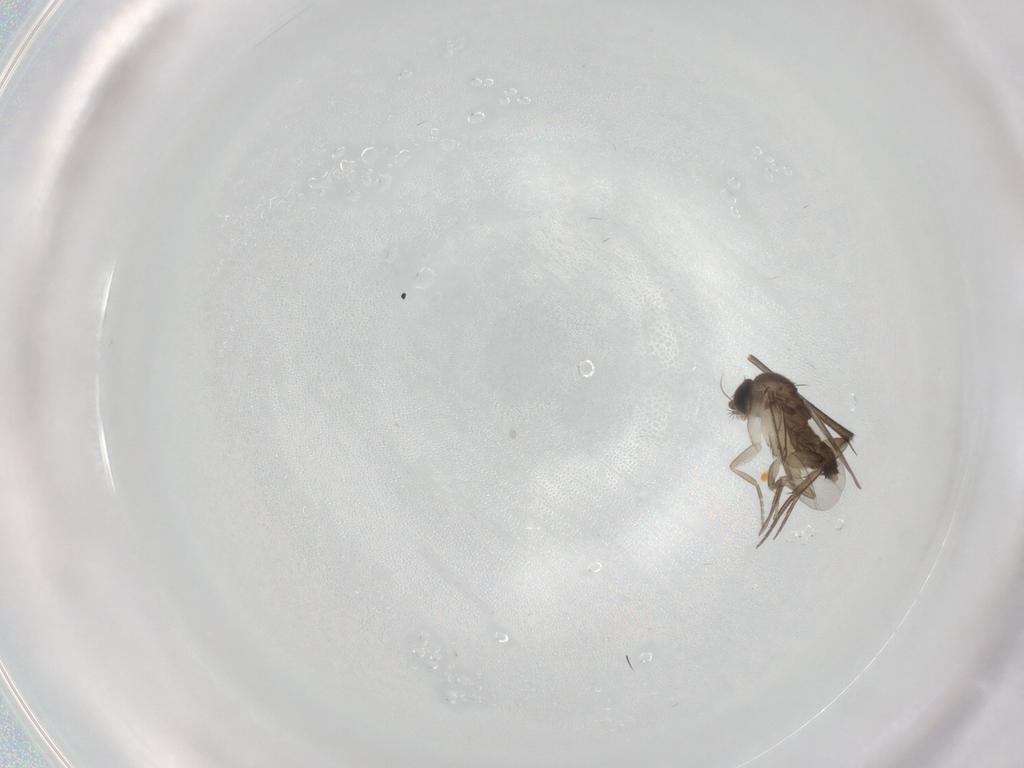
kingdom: Animalia
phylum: Arthropoda
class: Insecta
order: Diptera
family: Phoridae
